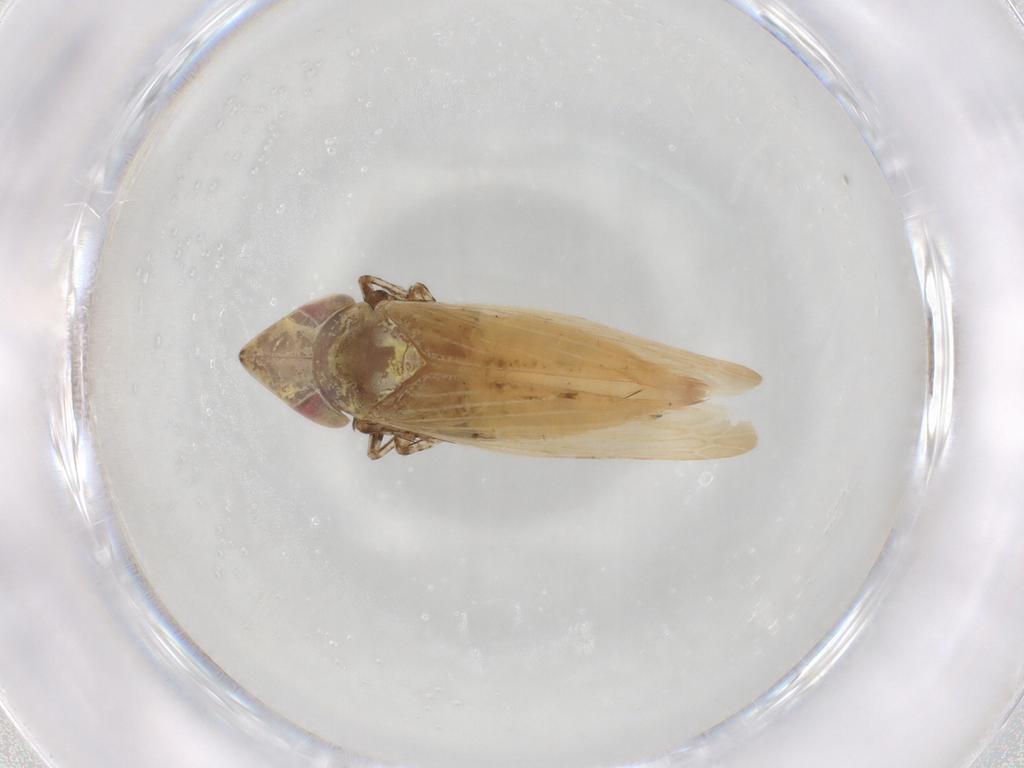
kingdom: Animalia
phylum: Arthropoda
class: Insecta
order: Hemiptera
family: Cicadellidae
